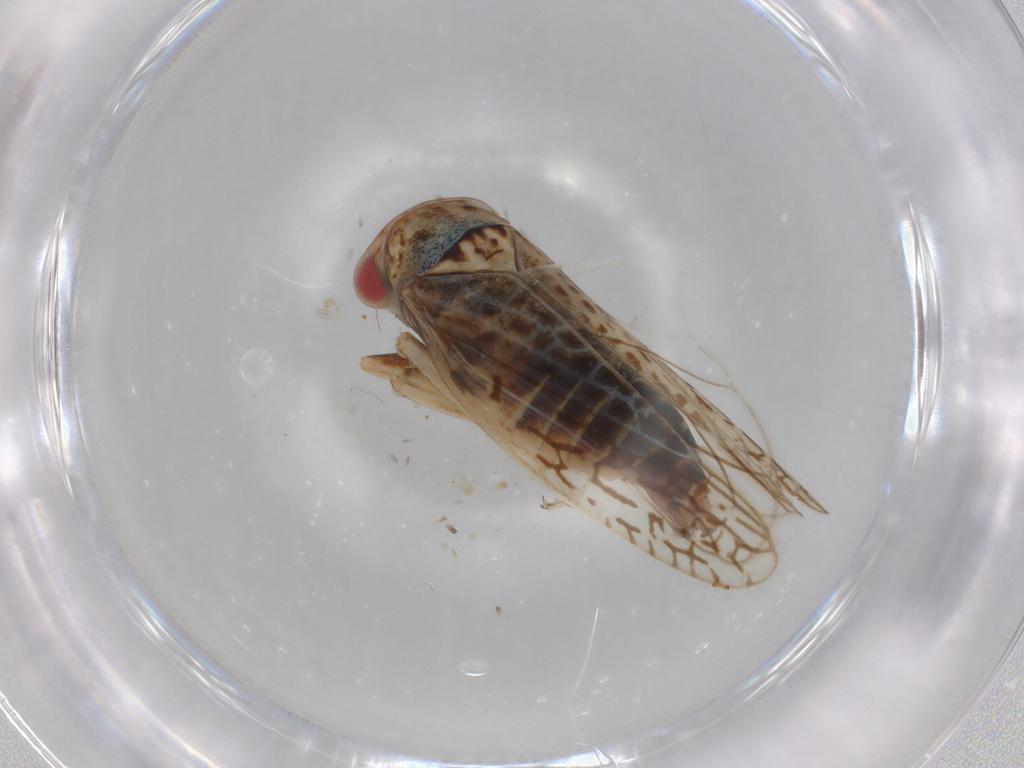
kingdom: Animalia
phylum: Arthropoda
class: Insecta
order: Hemiptera
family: Cicadellidae
